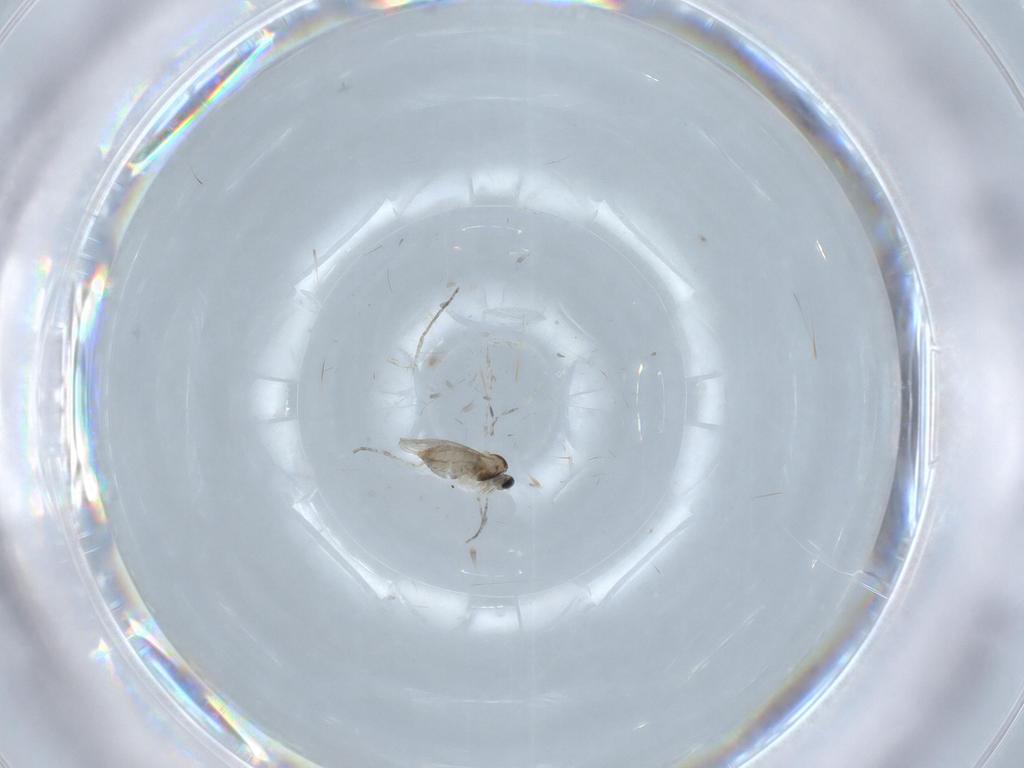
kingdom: Animalia
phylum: Arthropoda
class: Insecta
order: Diptera
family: Cecidomyiidae
